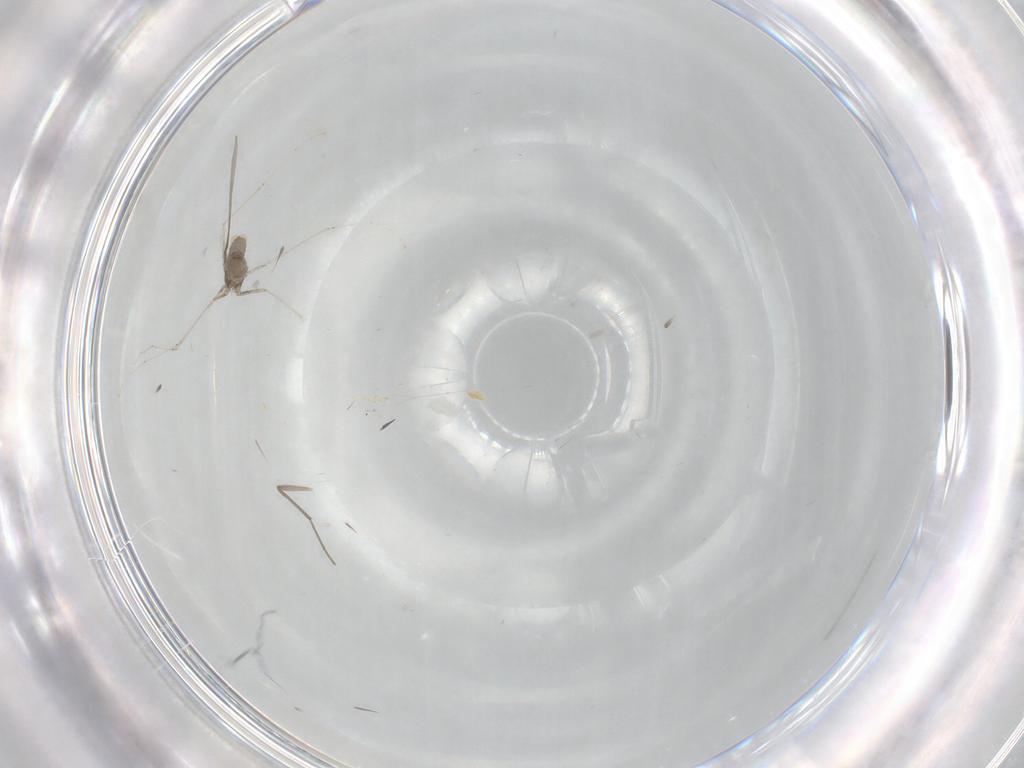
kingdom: Animalia
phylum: Arthropoda
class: Insecta
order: Diptera
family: Cecidomyiidae
